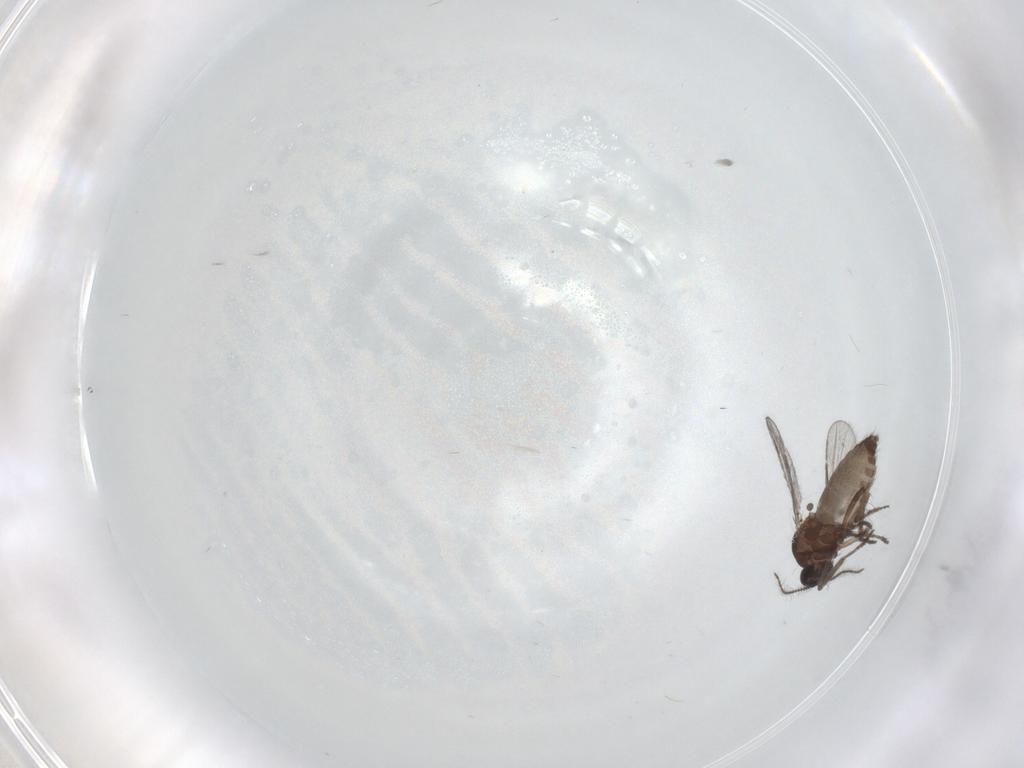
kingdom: Animalia
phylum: Arthropoda
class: Insecta
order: Diptera
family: Ceratopogonidae
